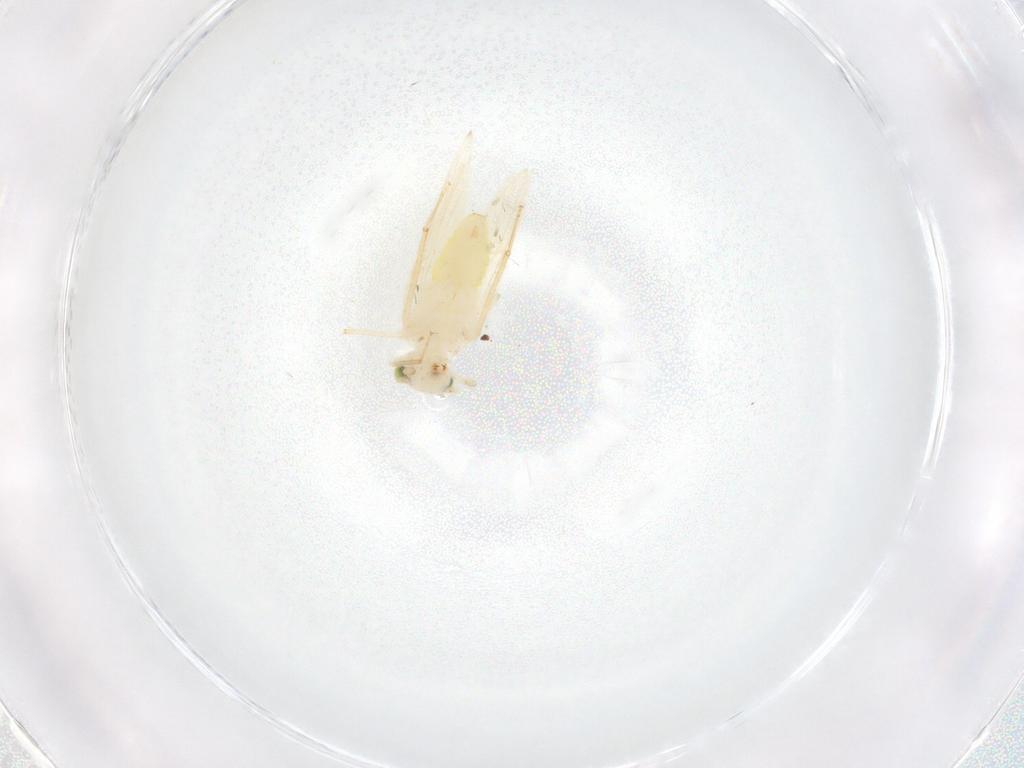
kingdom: Animalia
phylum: Arthropoda
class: Insecta
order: Psocodea
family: Lepidopsocidae
